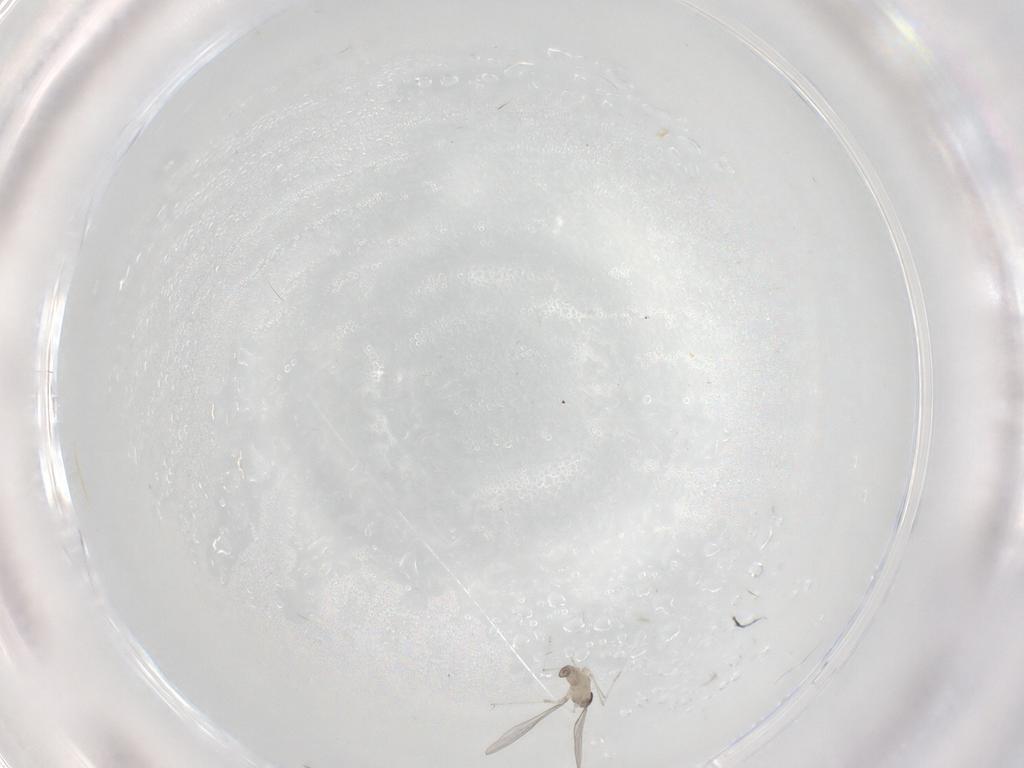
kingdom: Animalia
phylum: Arthropoda
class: Insecta
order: Diptera
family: Cecidomyiidae
